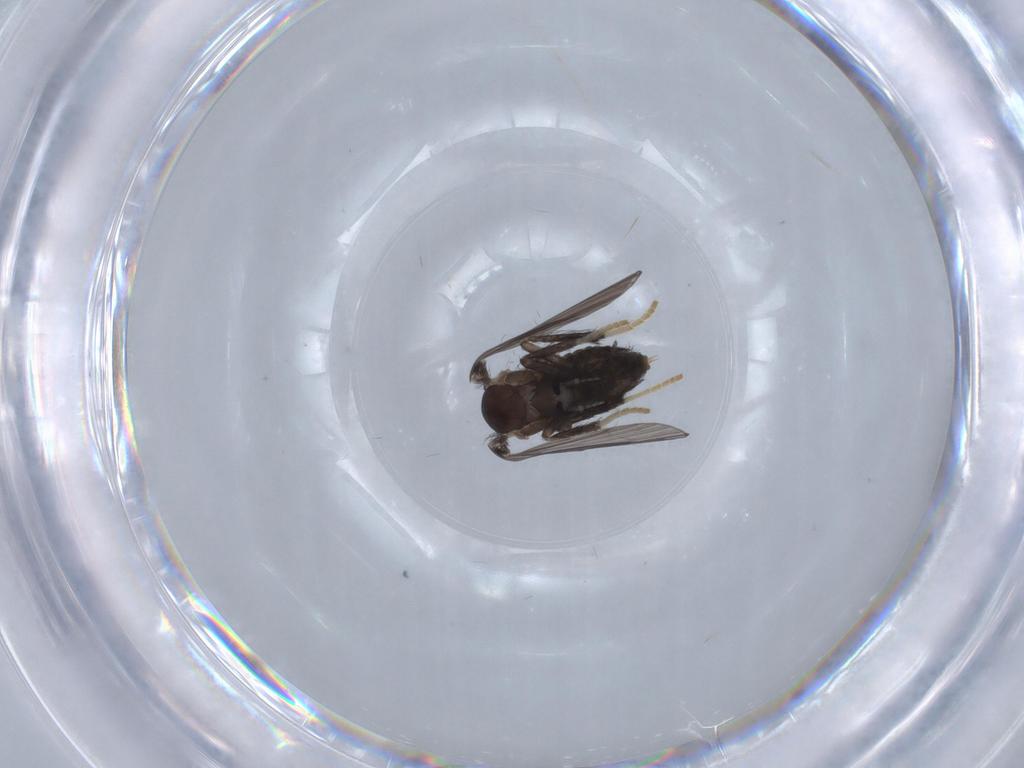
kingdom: Animalia
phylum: Arthropoda
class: Insecta
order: Diptera
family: Psychodidae
